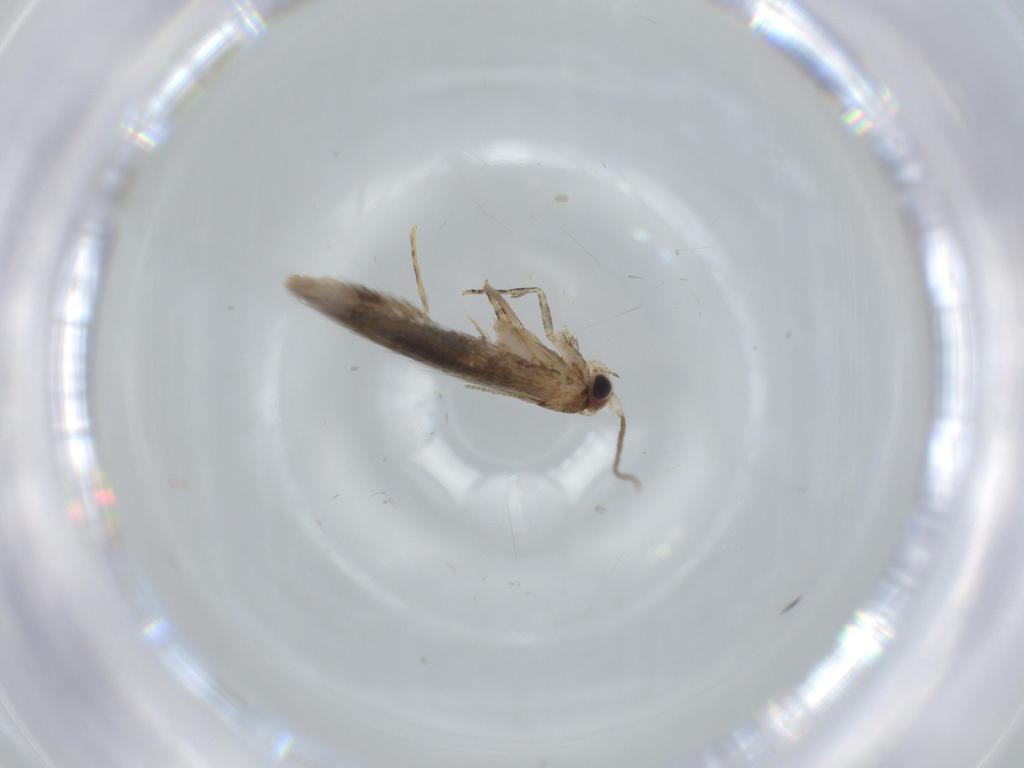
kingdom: Animalia
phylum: Arthropoda
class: Insecta
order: Lepidoptera
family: Tineidae
